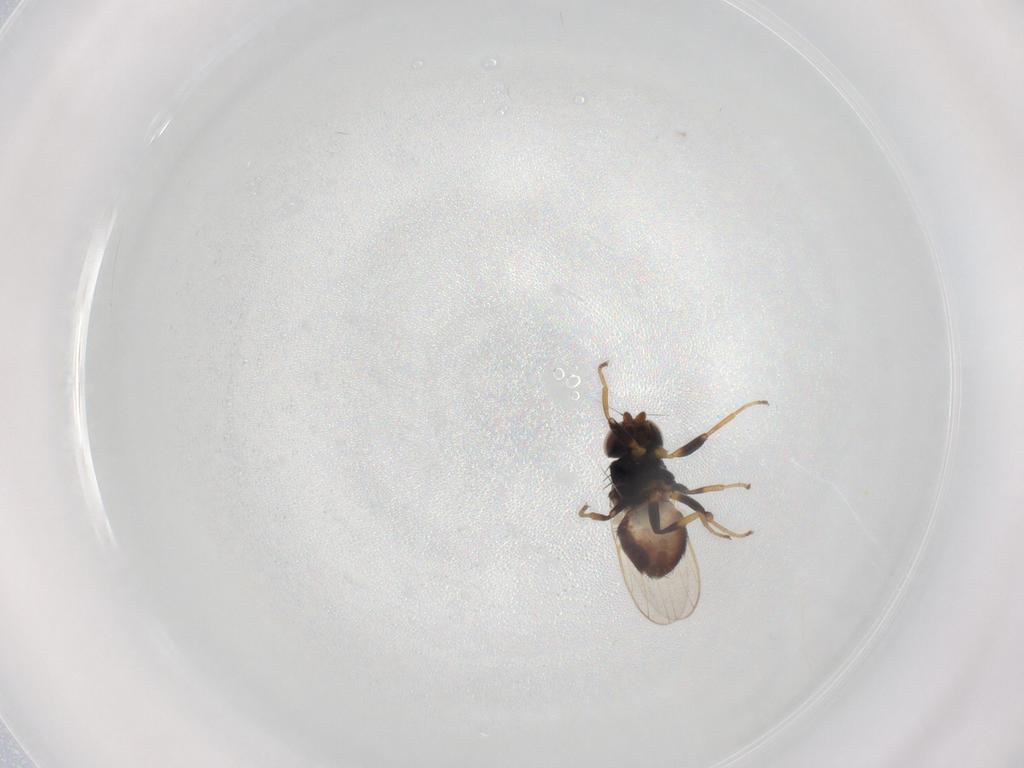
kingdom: Animalia
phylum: Arthropoda
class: Insecta
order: Diptera
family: Chloropidae
